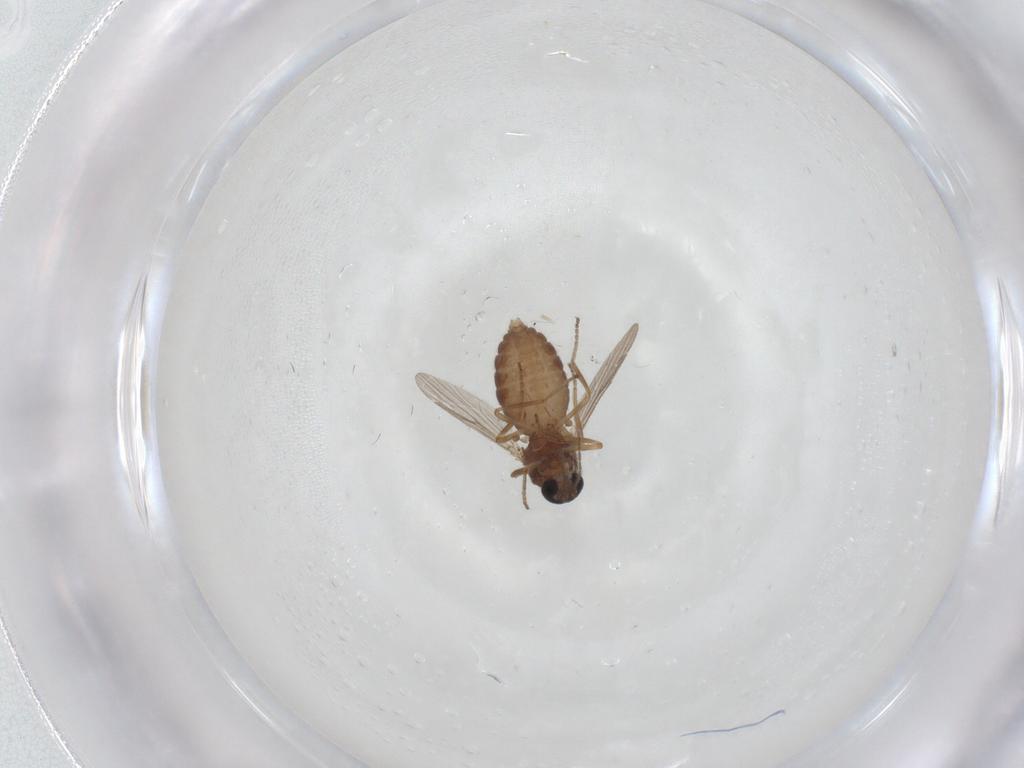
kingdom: Animalia
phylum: Arthropoda
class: Insecta
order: Diptera
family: Ceratopogonidae
